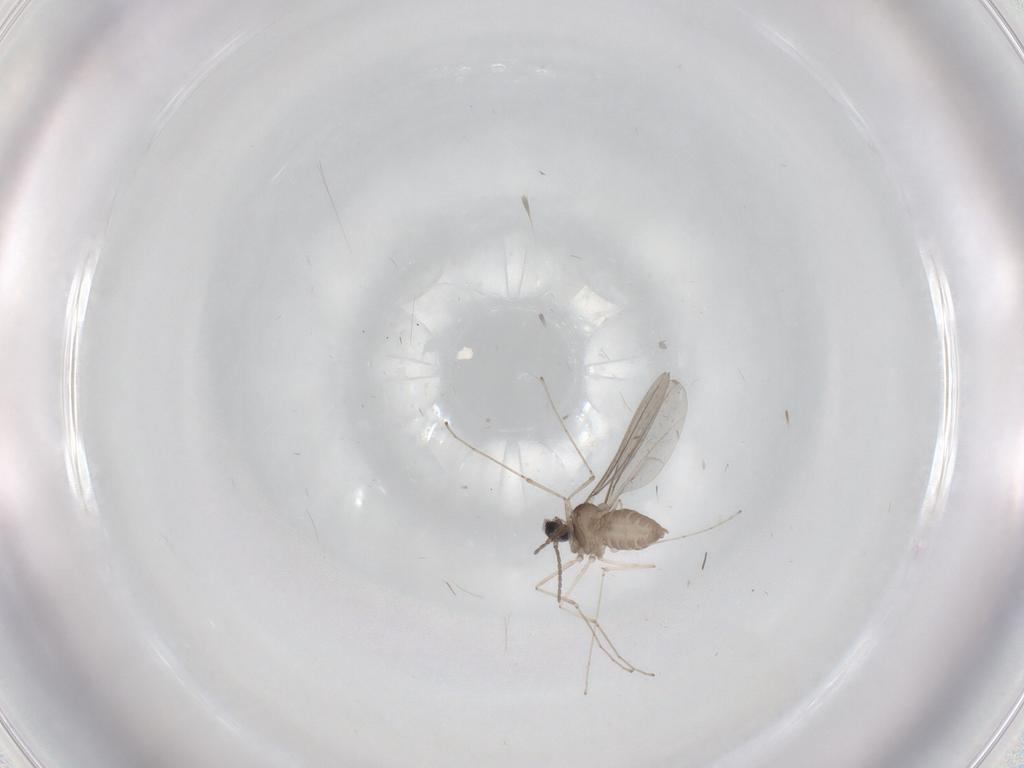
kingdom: Animalia
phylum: Arthropoda
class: Insecta
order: Diptera
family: Cecidomyiidae
